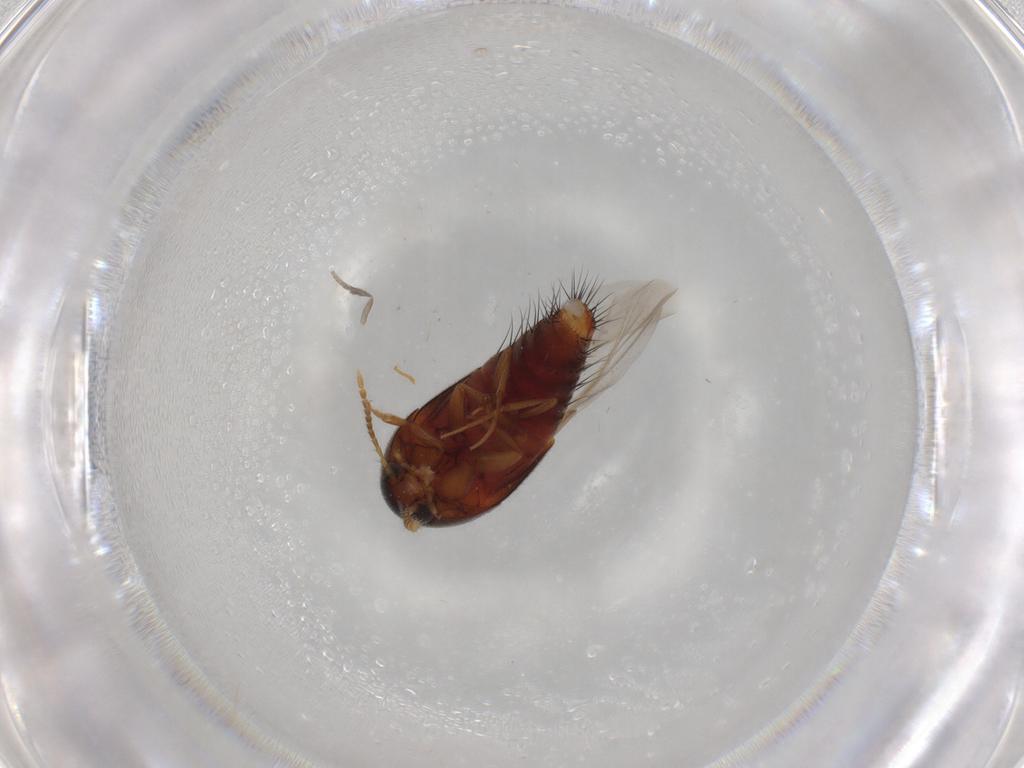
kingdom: Animalia
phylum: Arthropoda
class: Insecta
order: Coleoptera
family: Staphylinidae
